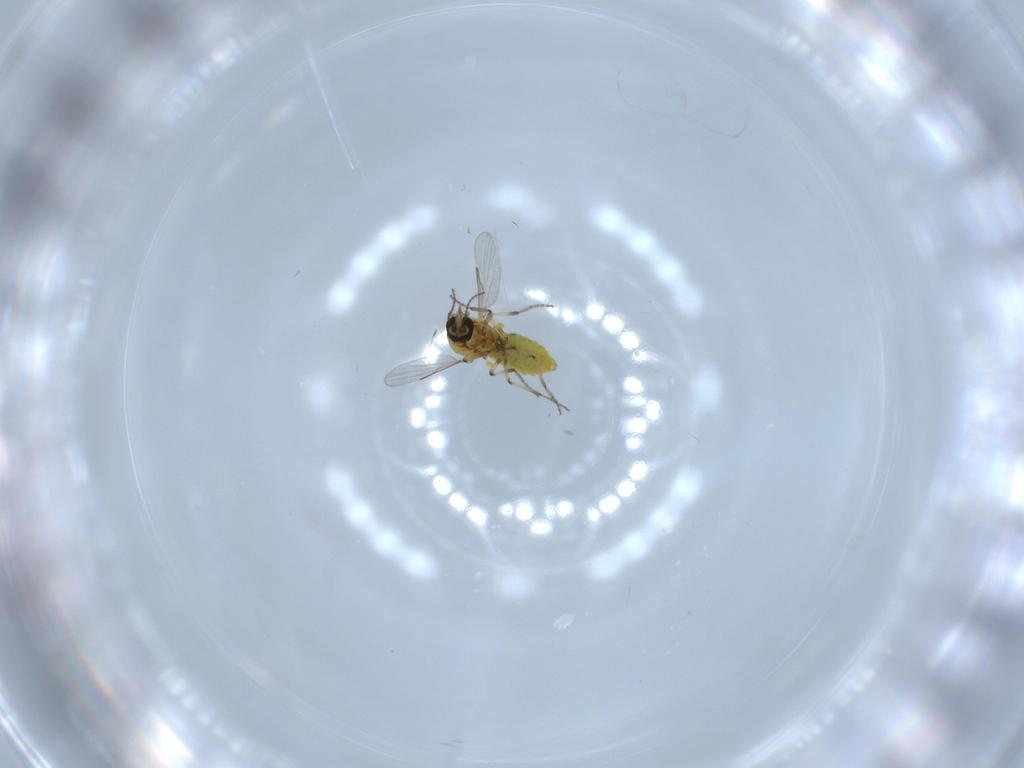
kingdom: Animalia
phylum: Arthropoda
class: Insecta
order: Diptera
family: Ceratopogonidae
